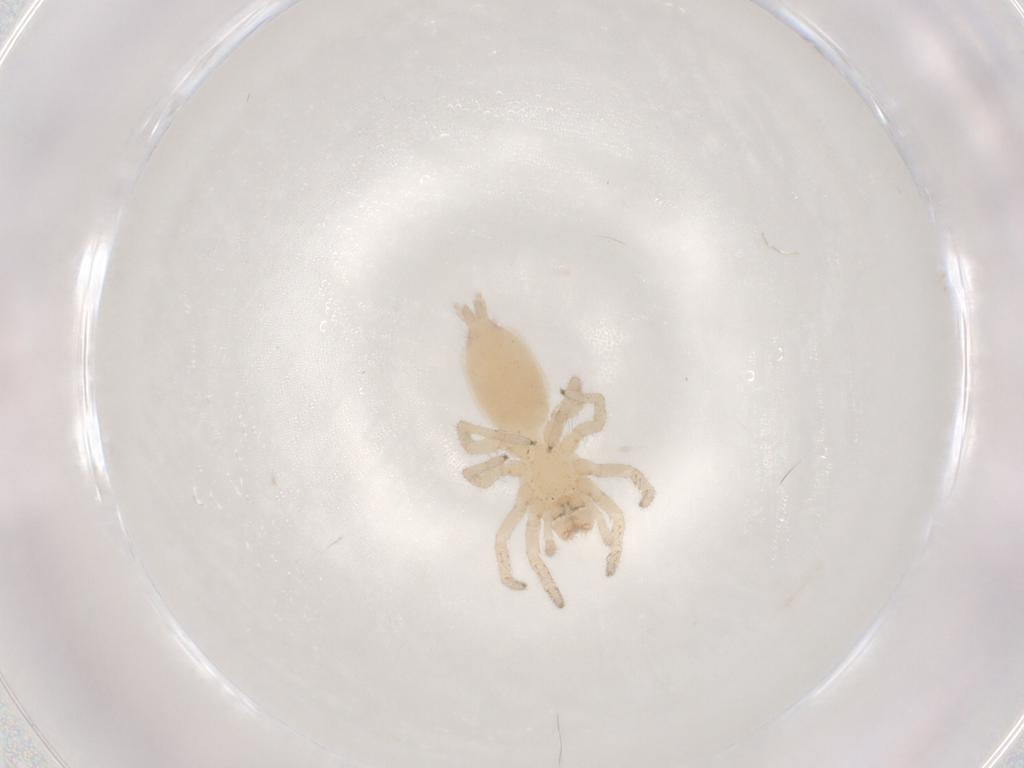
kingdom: Animalia
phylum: Arthropoda
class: Arachnida
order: Araneae
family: Clubionidae
